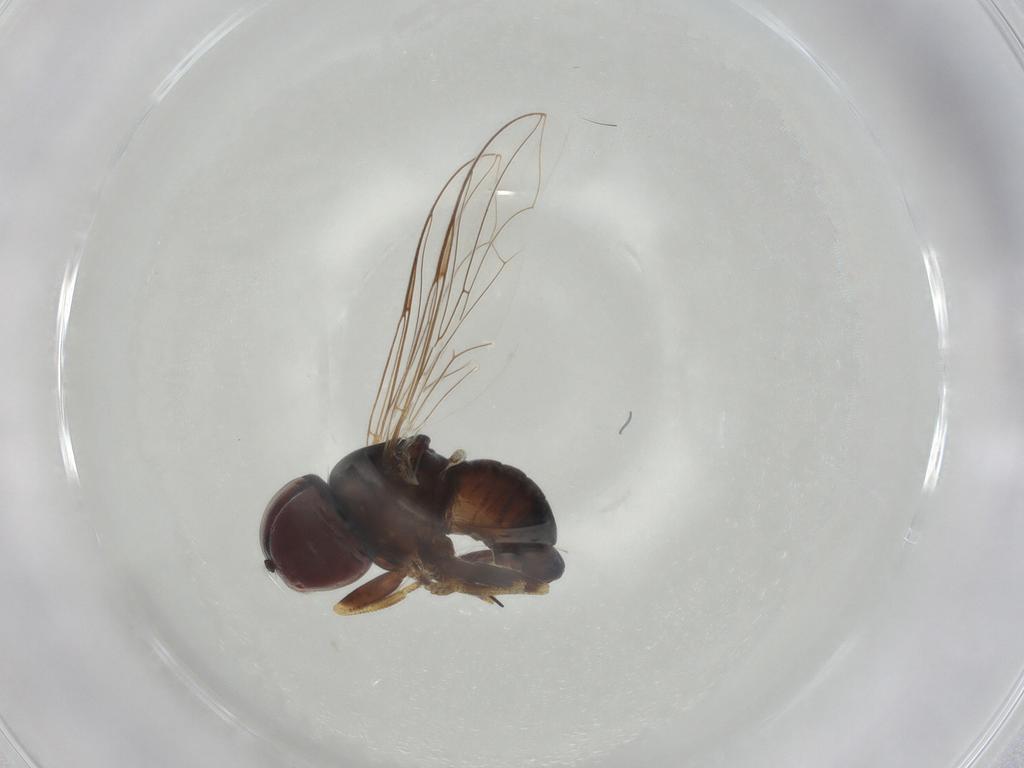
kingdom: Animalia
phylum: Arthropoda
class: Insecta
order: Diptera
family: Pipunculidae
